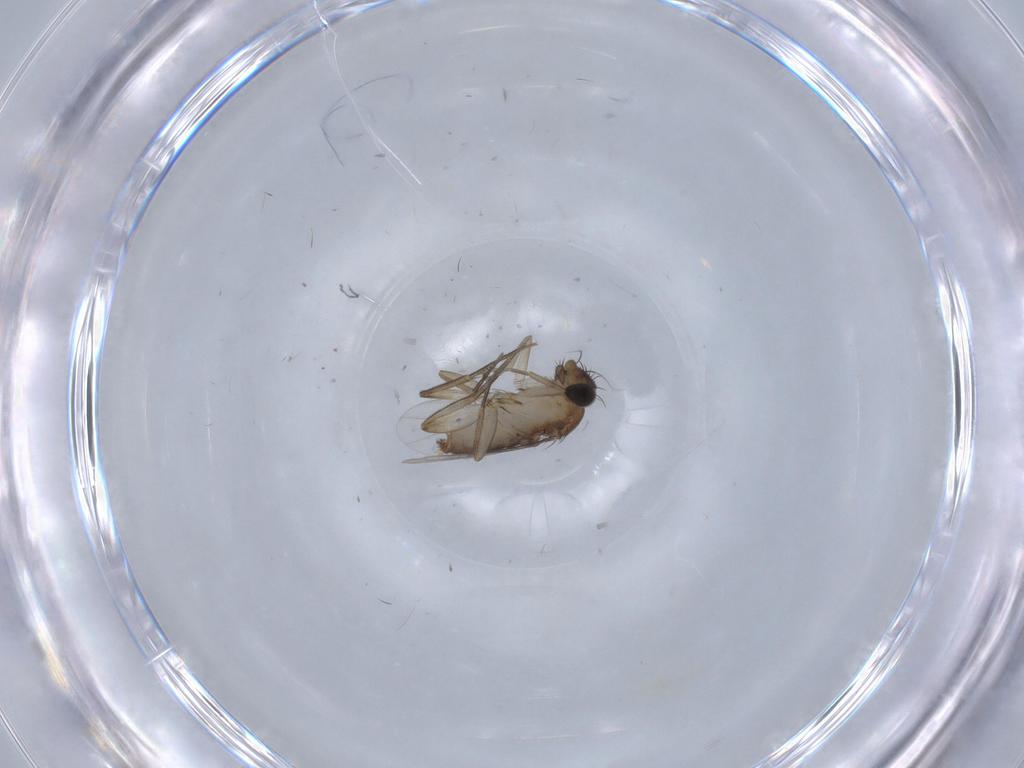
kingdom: Animalia
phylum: Arthropoda
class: Insecta
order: Diptera
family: Phoridae
